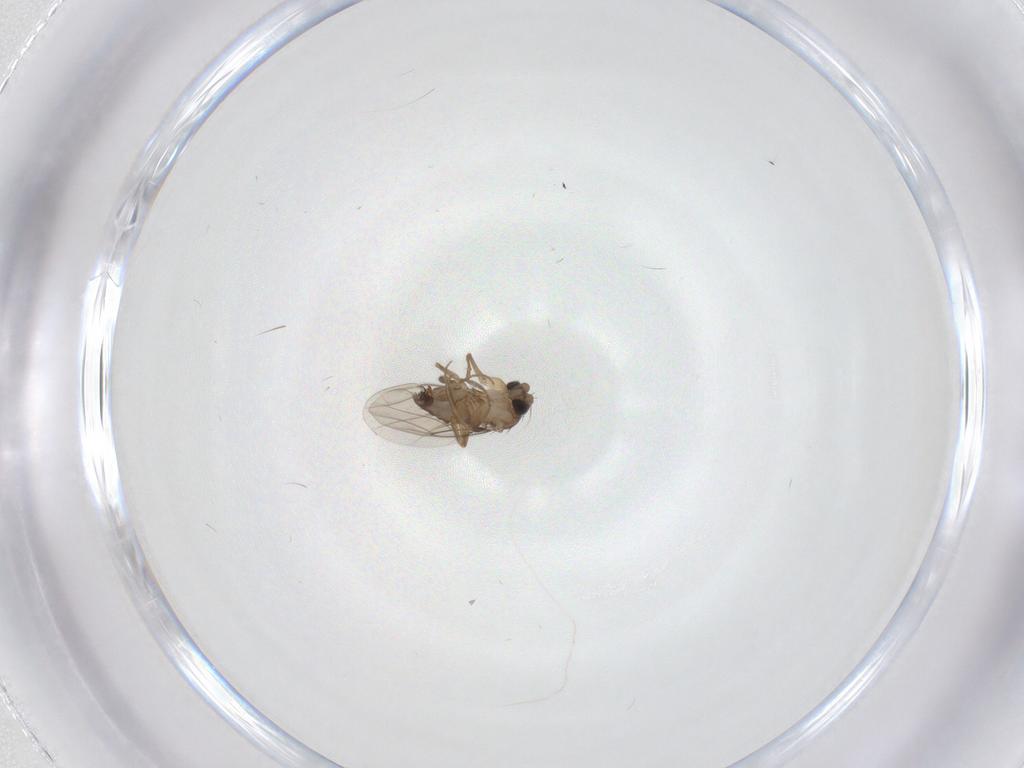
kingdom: Animalia
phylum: Arthropoda
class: Insecta
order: Diptera
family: Phoridae
